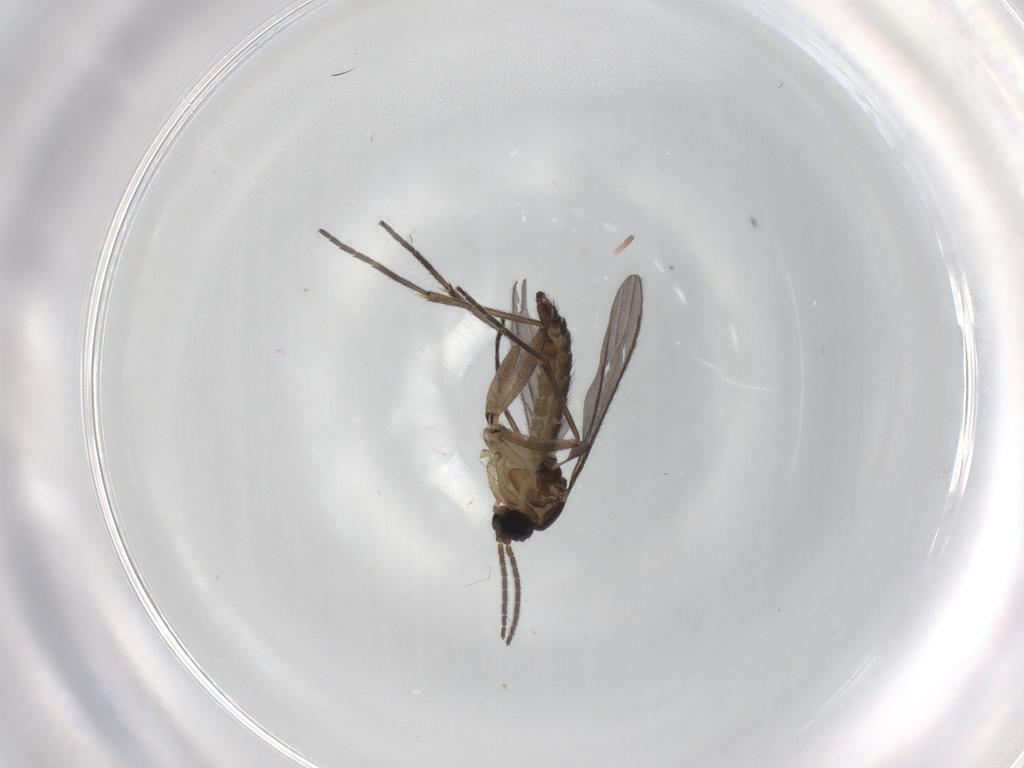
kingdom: Animalia
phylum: Arthropoda
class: Insecta
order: Diptera
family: Sciaridae
